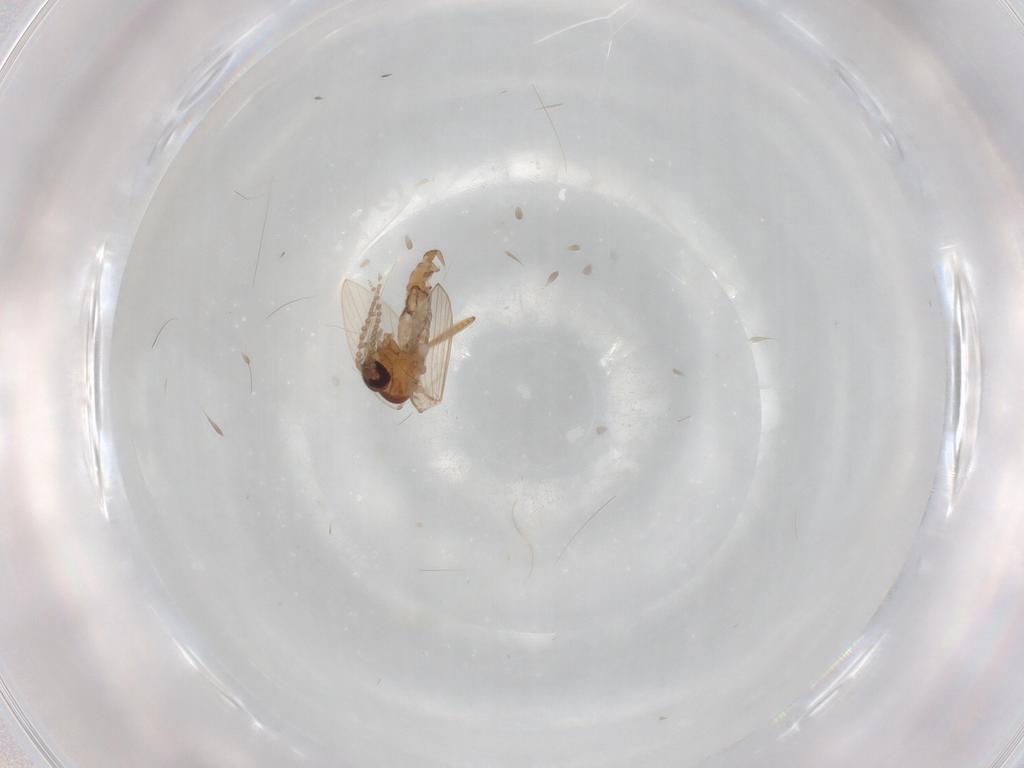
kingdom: Animalia
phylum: Arthropoda
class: Insecta
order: Diptera
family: Psychodidae
